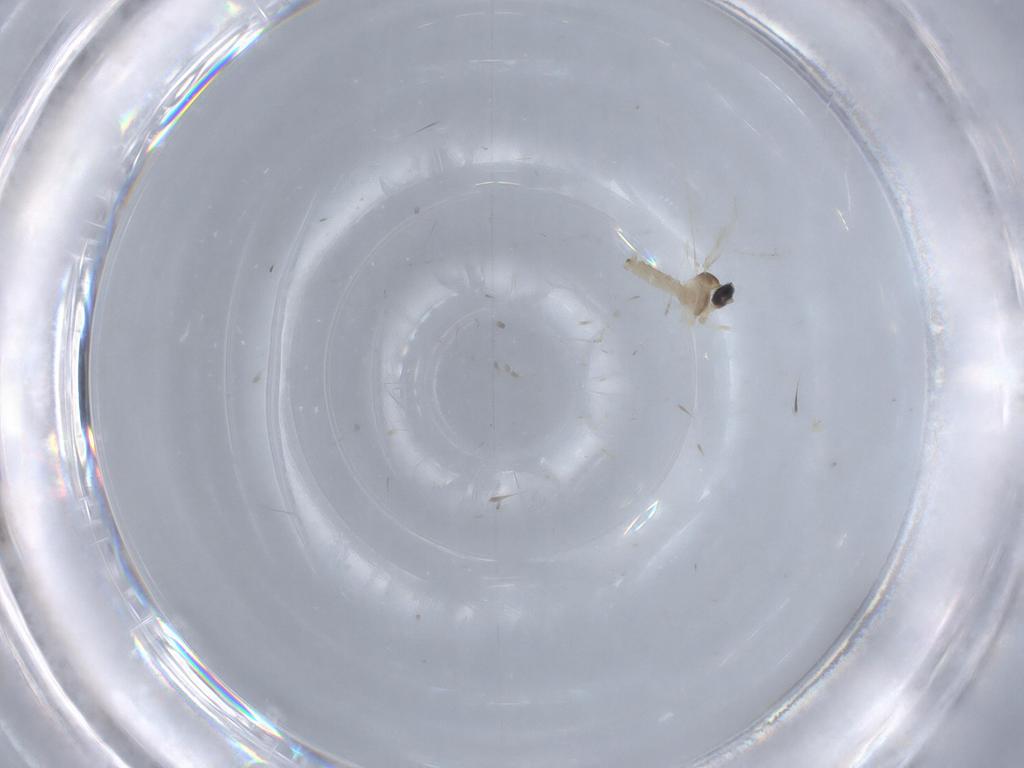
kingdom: Animalia
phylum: Arthropoda
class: Insecta
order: Diptera
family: Cecidomyiidae
